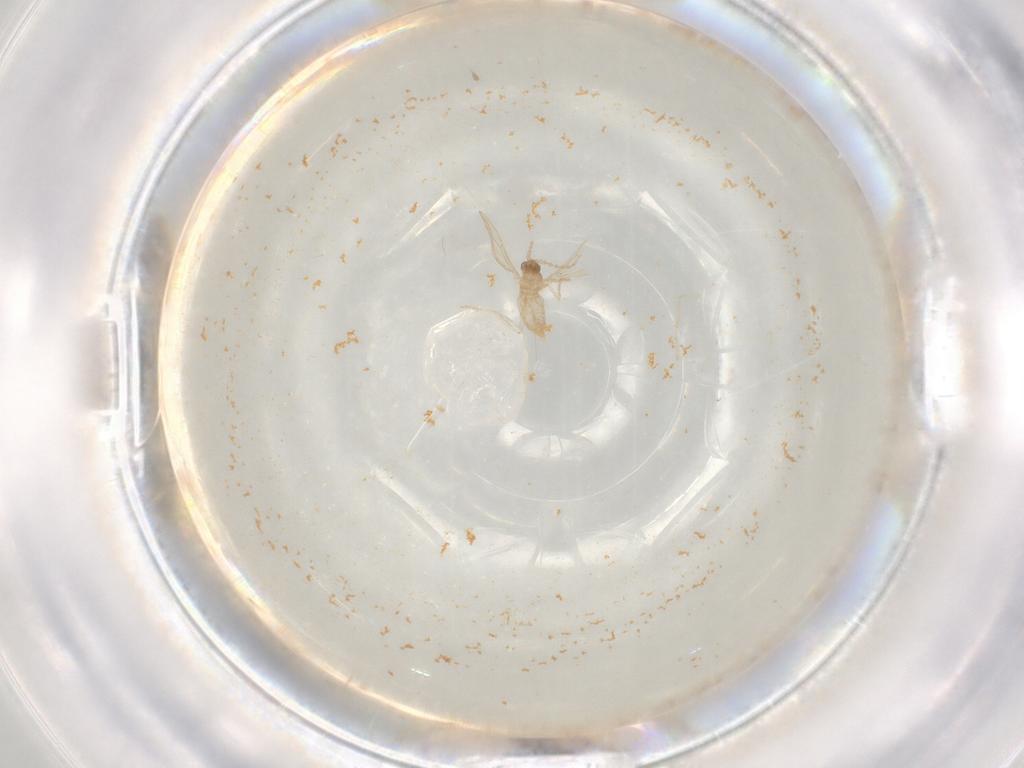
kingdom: Animalia
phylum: Arthropoda
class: Insecta
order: Diptera
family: Cecidomyiidae
